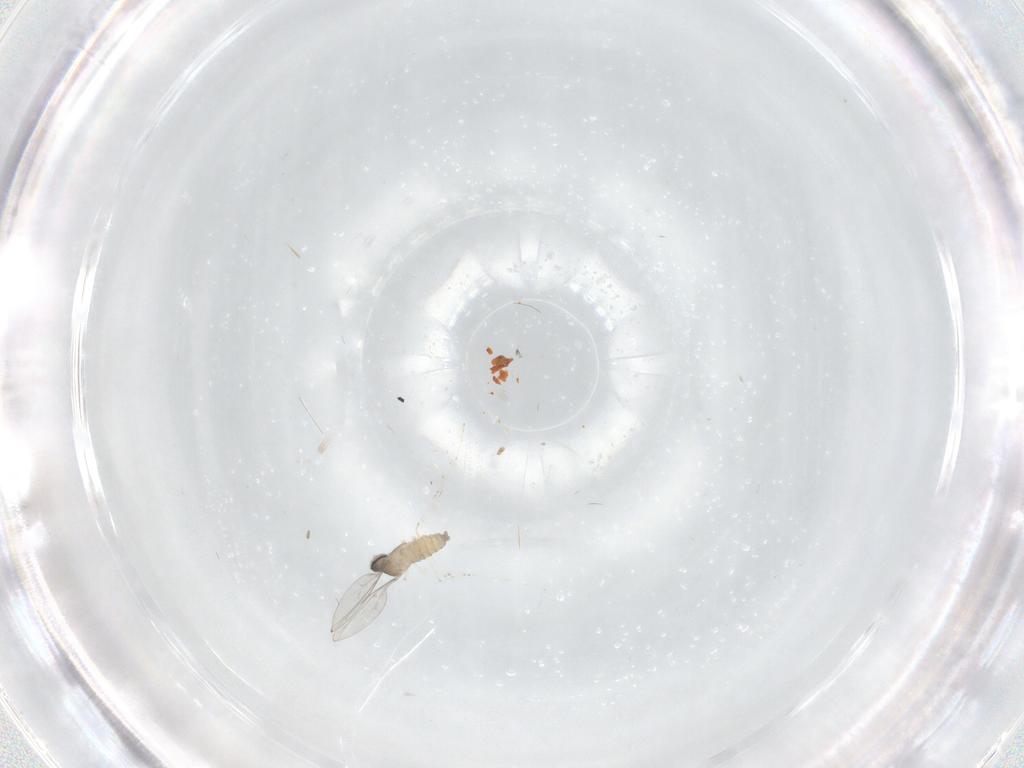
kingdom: Animalia
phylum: Arthropoda
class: Insecta
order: Diptera
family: Cecidomyiidae
